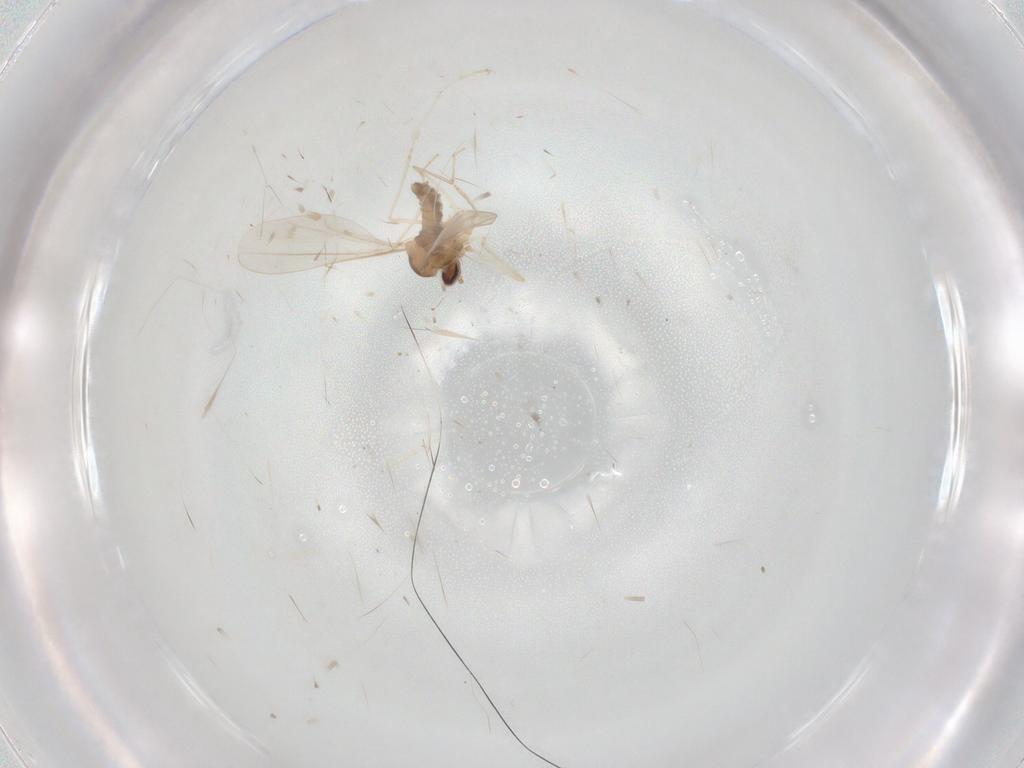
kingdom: Animalia
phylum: Arthropoda
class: Insecta
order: Diptera
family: Cecidomyiidae
